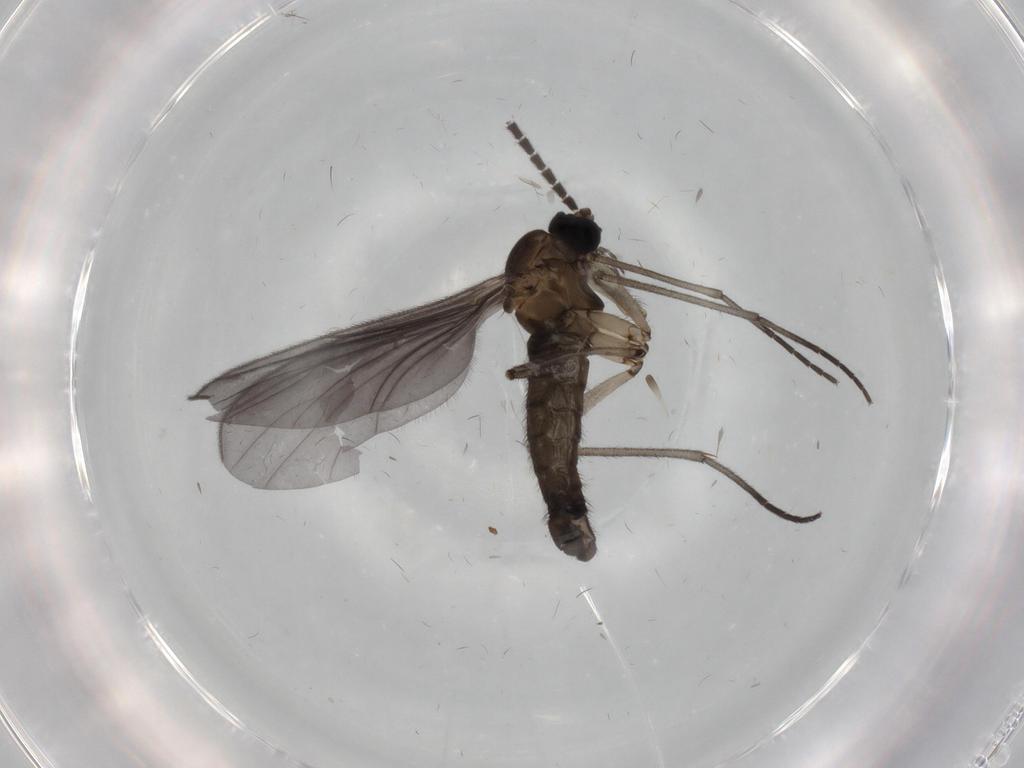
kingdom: Animalia
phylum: Arthropoda
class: Insecta
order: Diptera
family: Sciaridae
